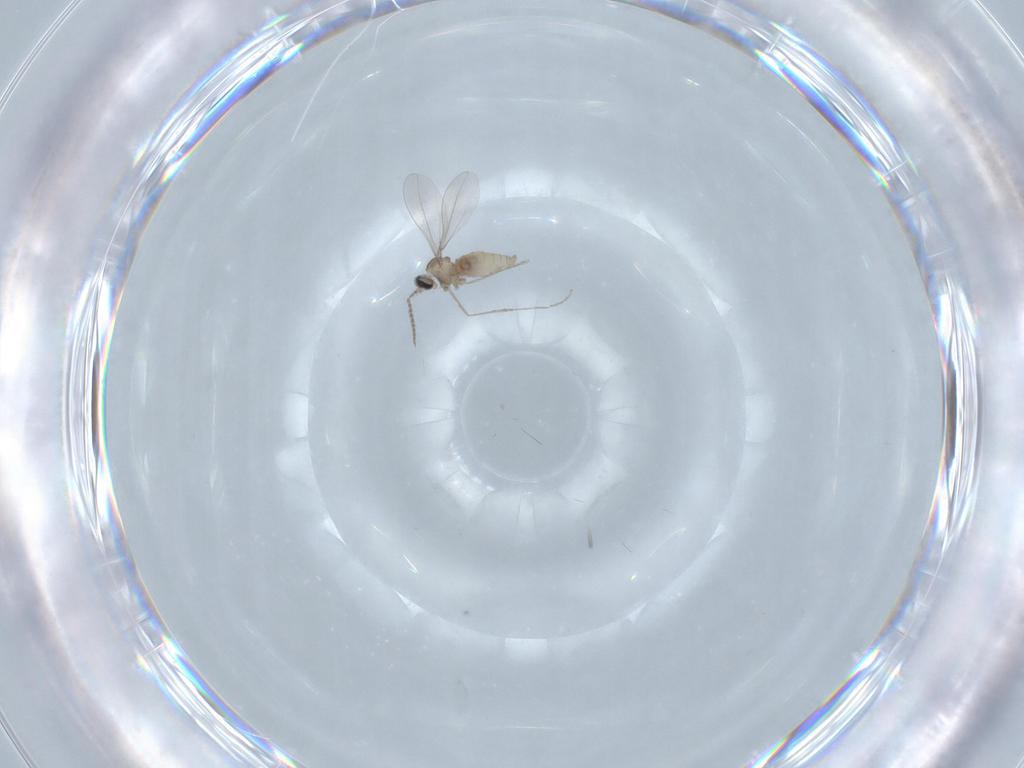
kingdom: Animalia
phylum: Arthropoda
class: Insecta
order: Diptera
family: Cecidomyiidae
